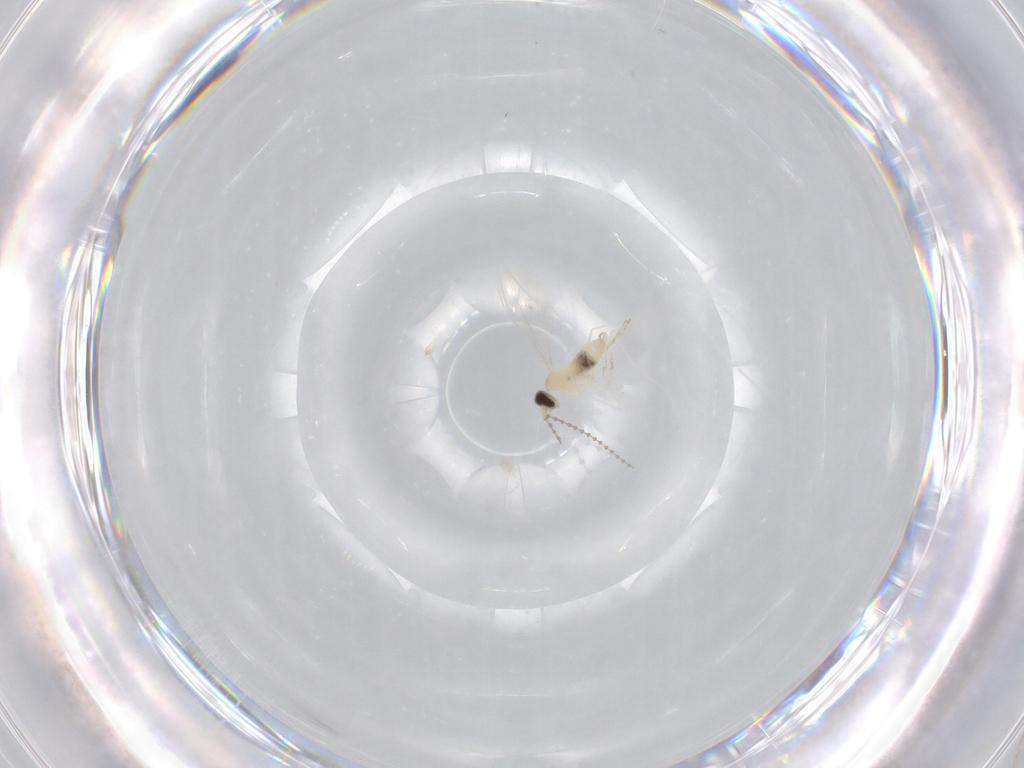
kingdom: Animalia
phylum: Arthropoda
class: Insecta
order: Diptera
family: Cecidomyiidae
